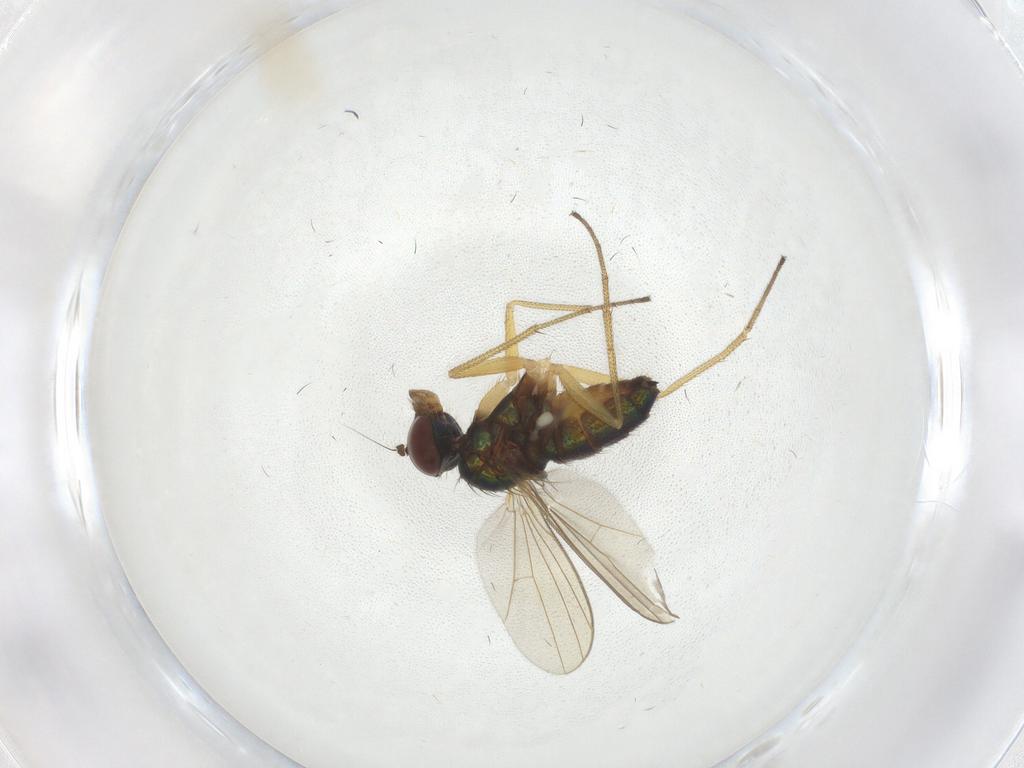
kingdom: Animalia
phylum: Arthropoda
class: Insecta
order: Diptera
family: Dolichopodidae
